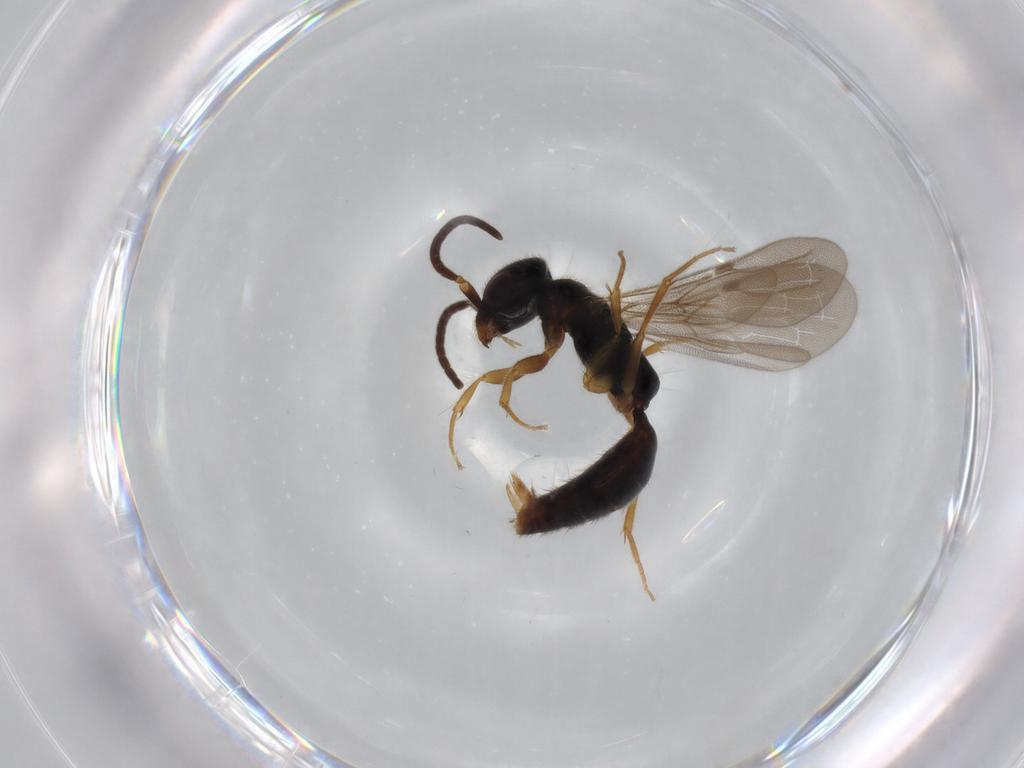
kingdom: Animalia
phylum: Arthropoda
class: Insecta
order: Hymenoptera
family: Bethylidae
